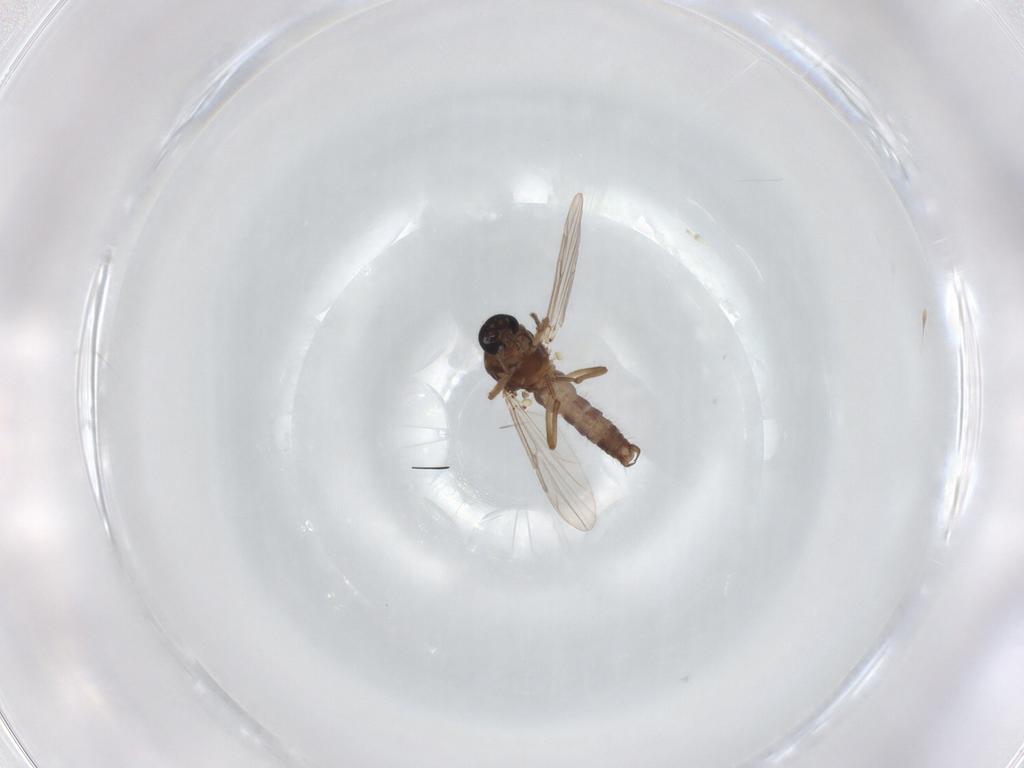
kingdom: Animalia
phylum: Arthropoda
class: Insecta
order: Diptera
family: Ceratopogonidae
